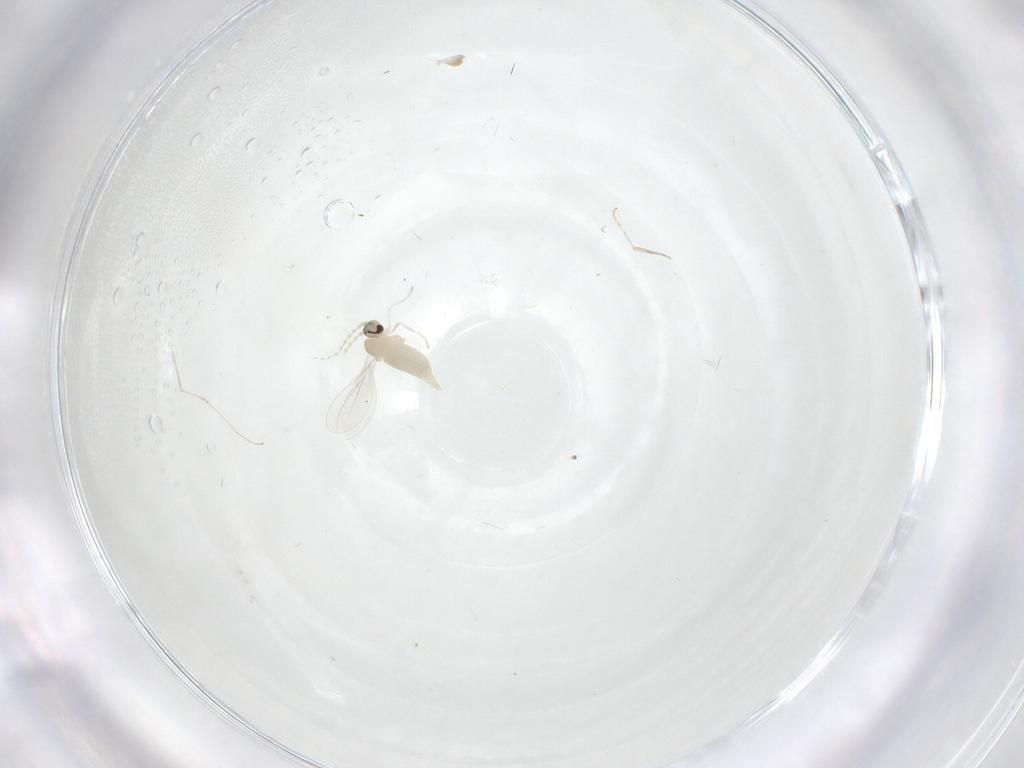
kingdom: Animalia
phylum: Arthropoda
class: Insecta
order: Diptera
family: Cecidomyiidae
